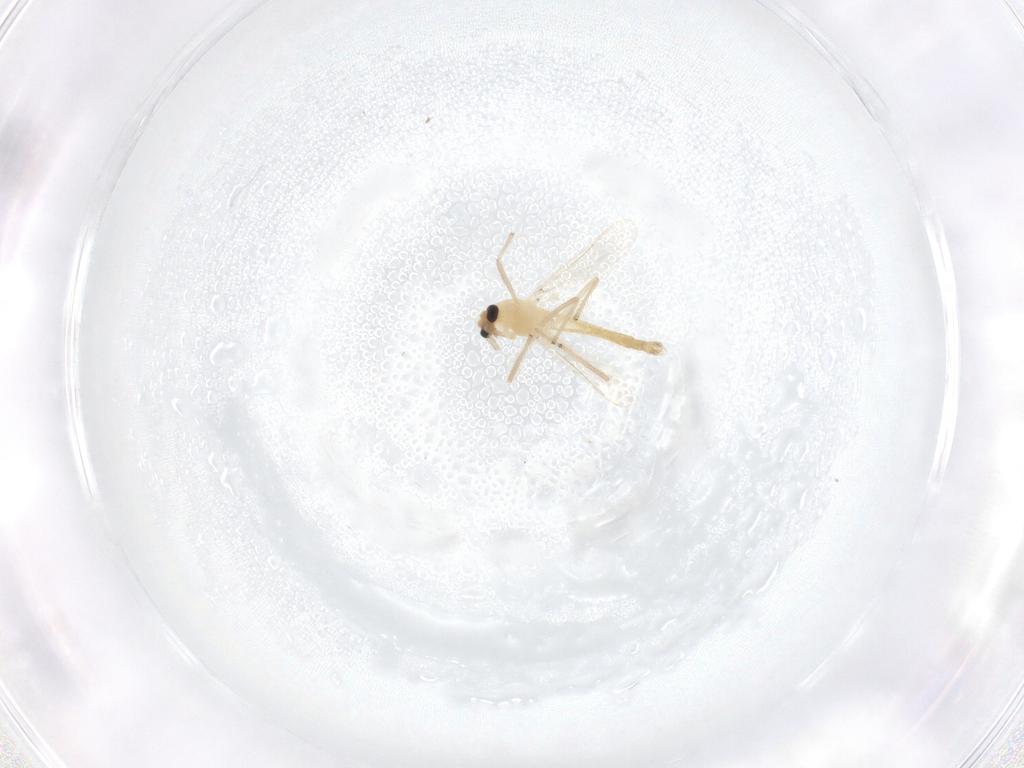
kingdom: Animalia
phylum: Arthropoda
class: Insecta
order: Diptera
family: Chironomidae
